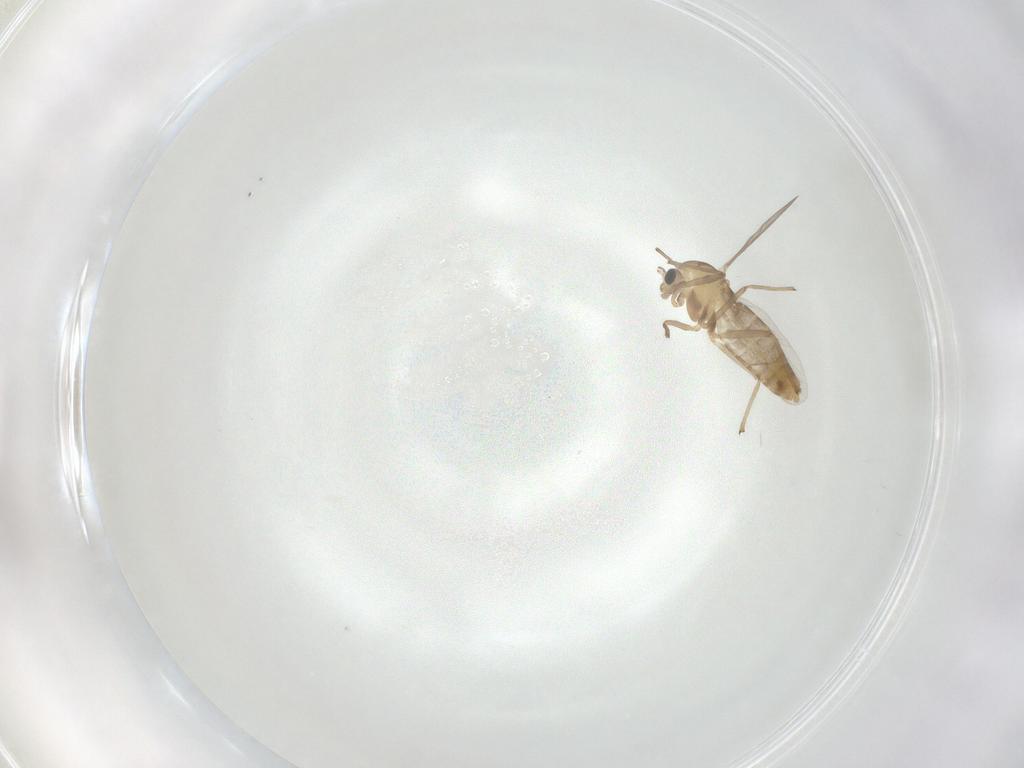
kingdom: Animalia
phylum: Arthropoda
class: Insecta
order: Diptera
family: Chironomidae
